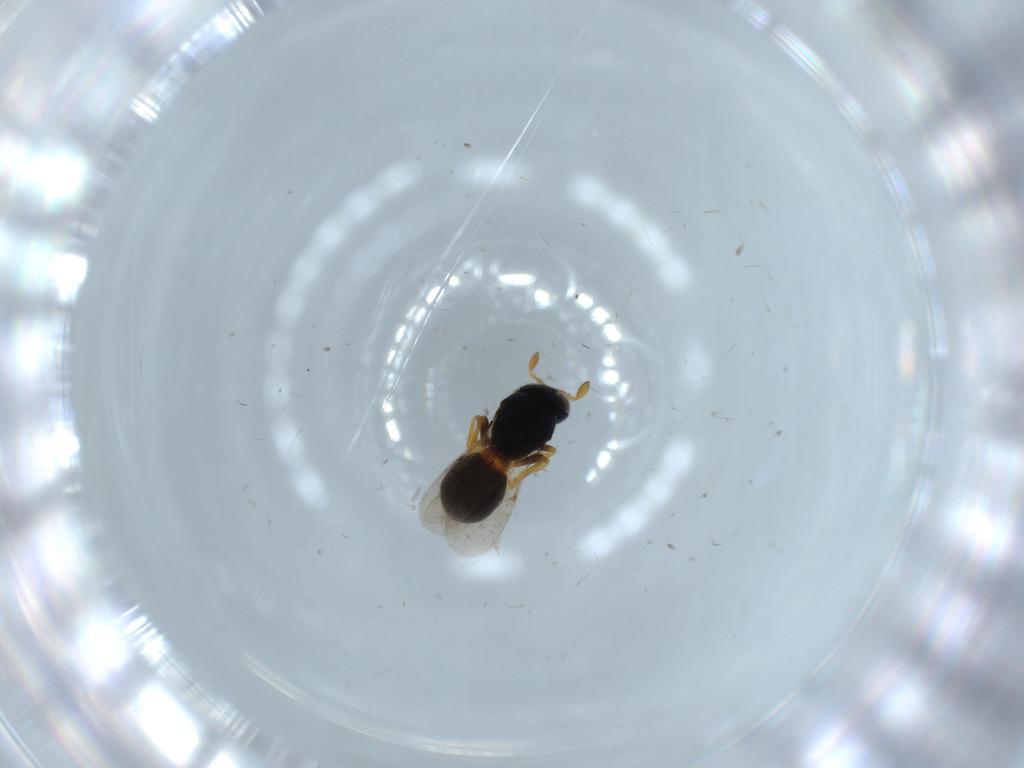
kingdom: Animalia
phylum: Arthropoda
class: Insecta
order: Hymenoptera
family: Scelionidae
